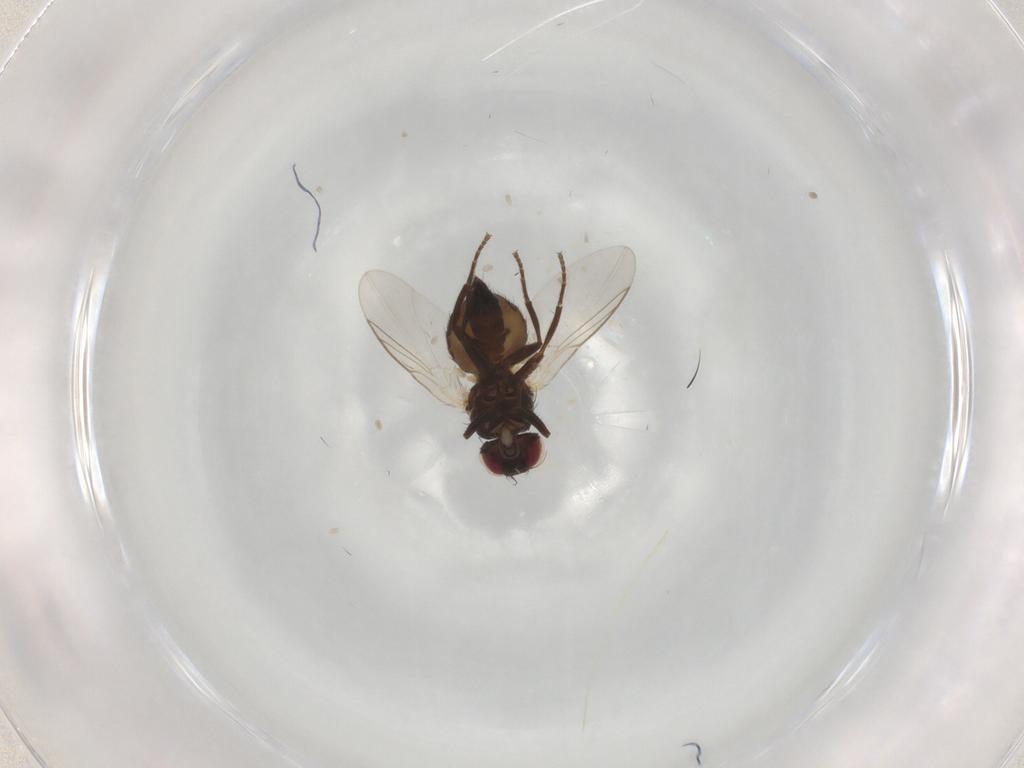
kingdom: Animalia
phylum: Arthropoda
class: Insecta
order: Diptera
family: Agromyzidae
